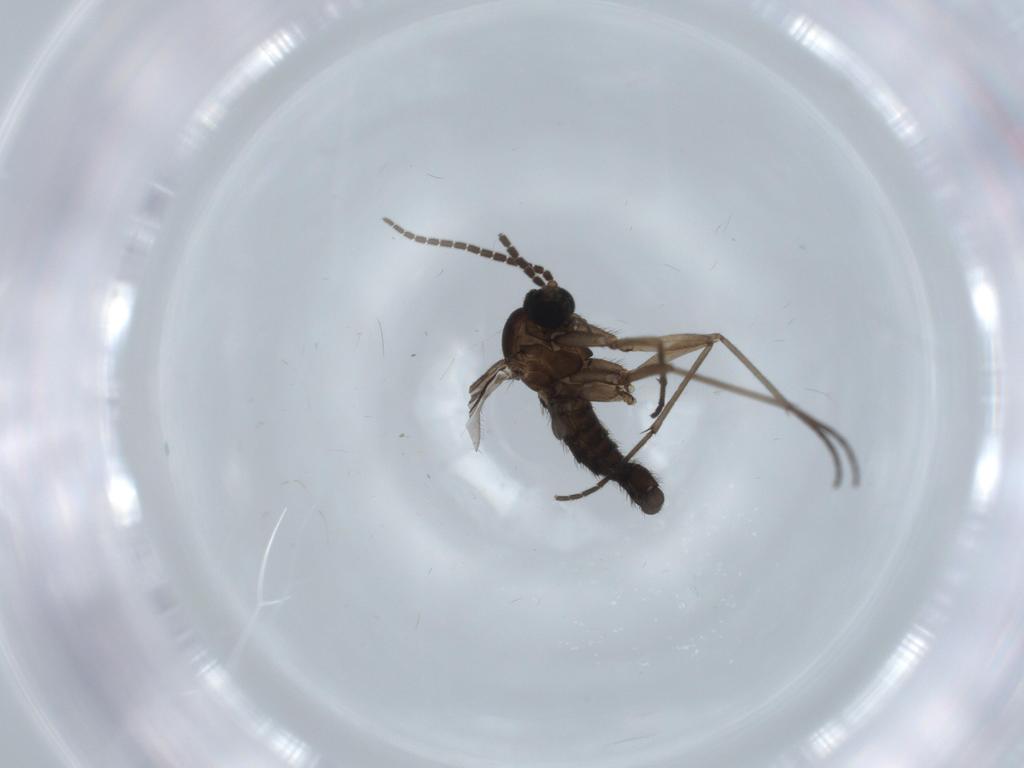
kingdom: Animalia
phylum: Arthropoda
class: Insecta
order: Diptera
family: Sciaridae
